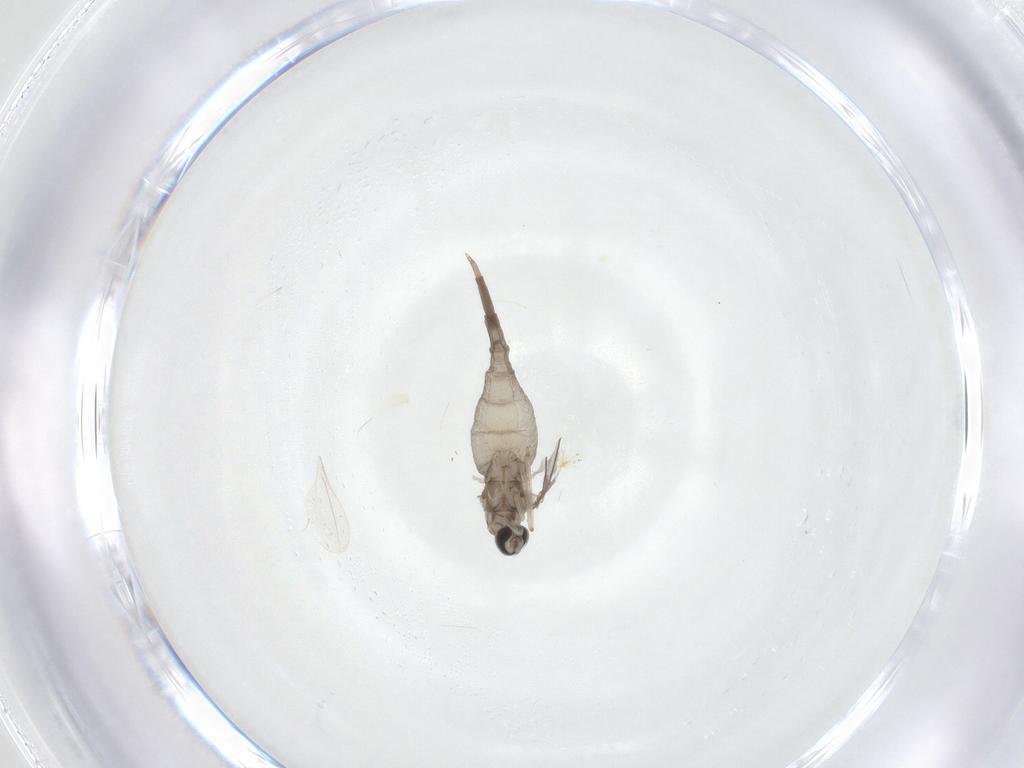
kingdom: Animalia
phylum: Arthropoda
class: Insecta
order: Diptera
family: Cecidomyiidae
